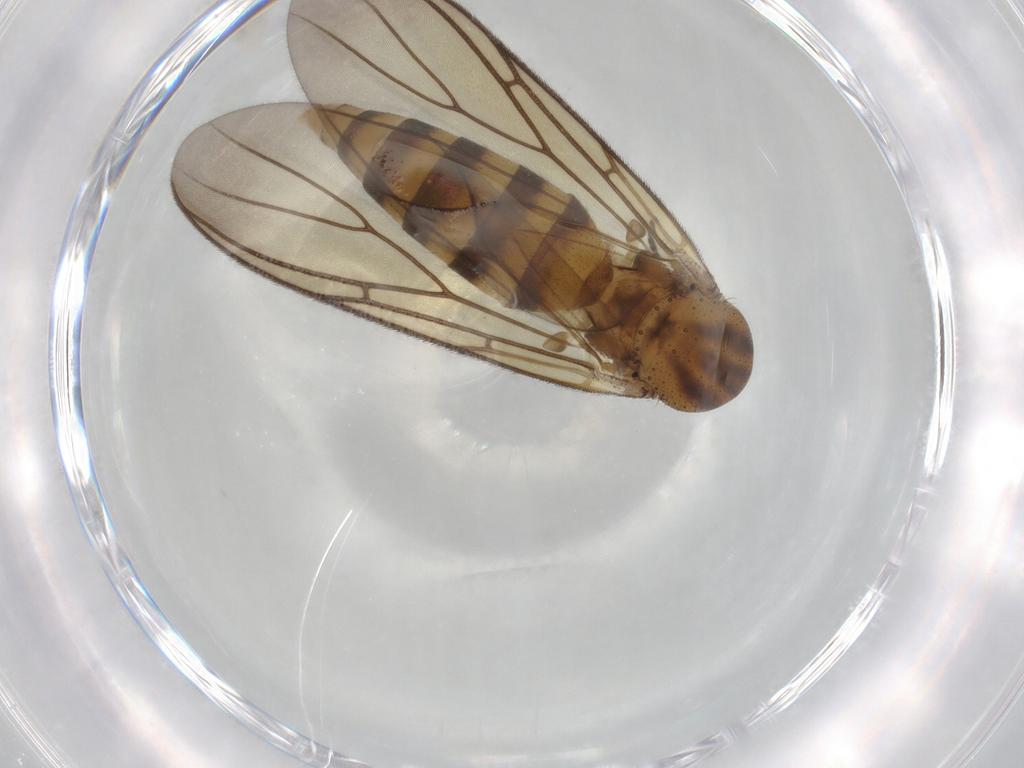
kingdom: Animalia
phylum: Arthropoda
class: Insecta
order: Diptera
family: Mycetophilidae
